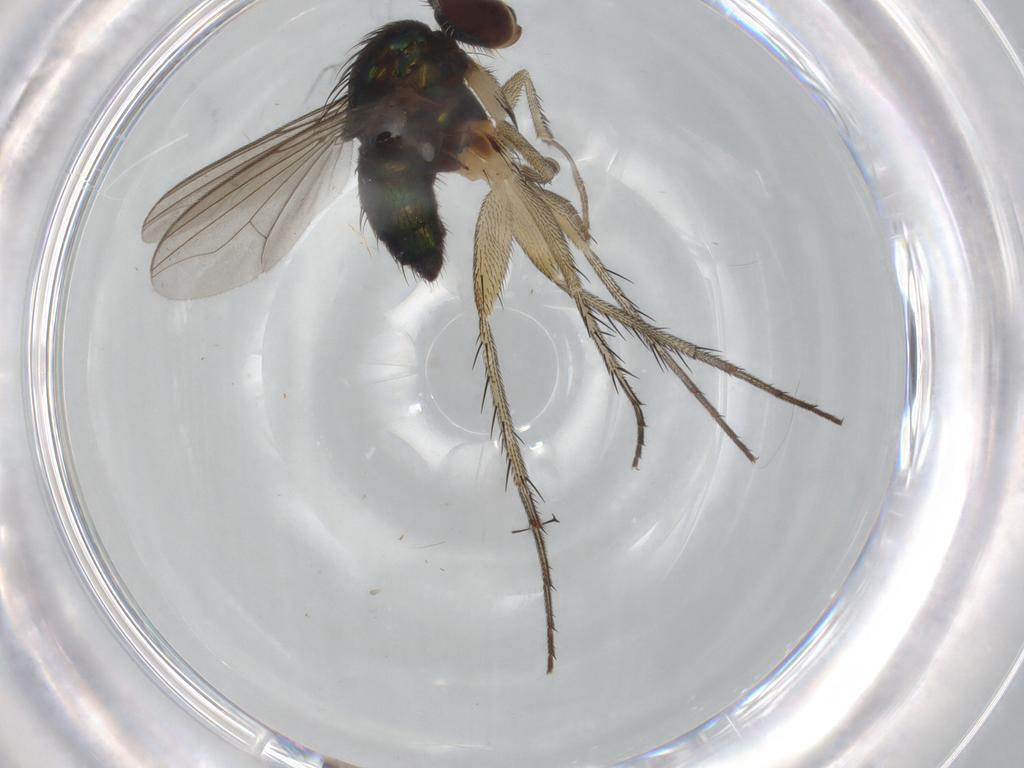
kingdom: Animalia
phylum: Arthropoda
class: Insecta
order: Diptera
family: Dolichopodidae
